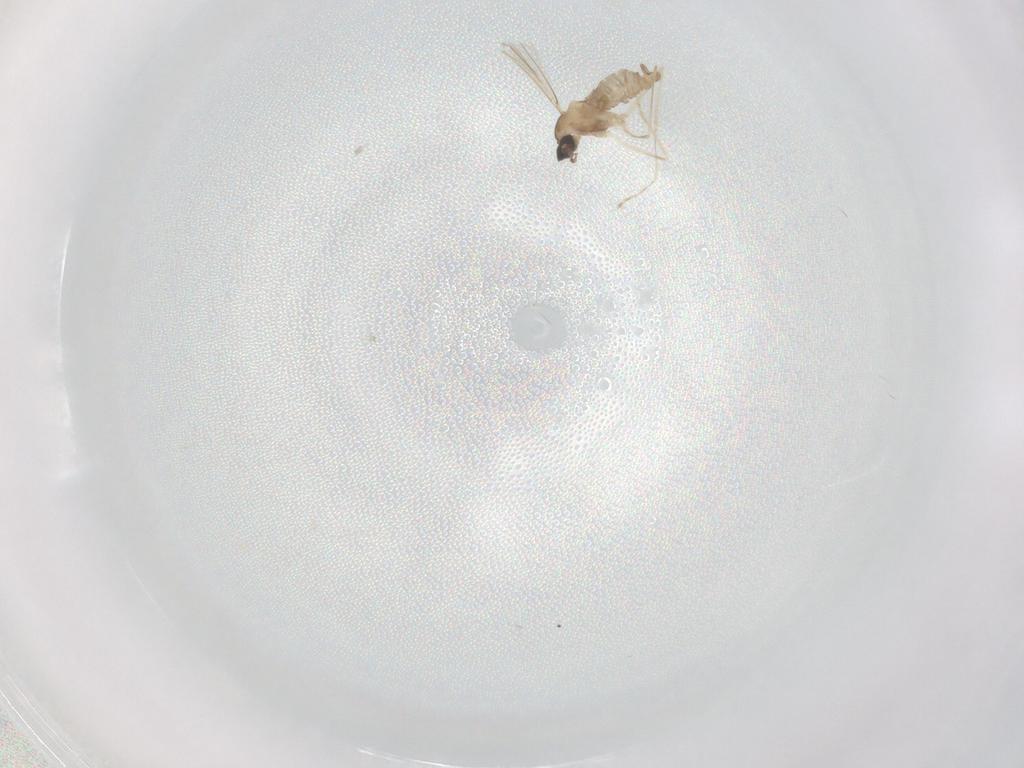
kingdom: Animalia
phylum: Arthropoda
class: Insecta
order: Diptera
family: Cecidomyiidae
